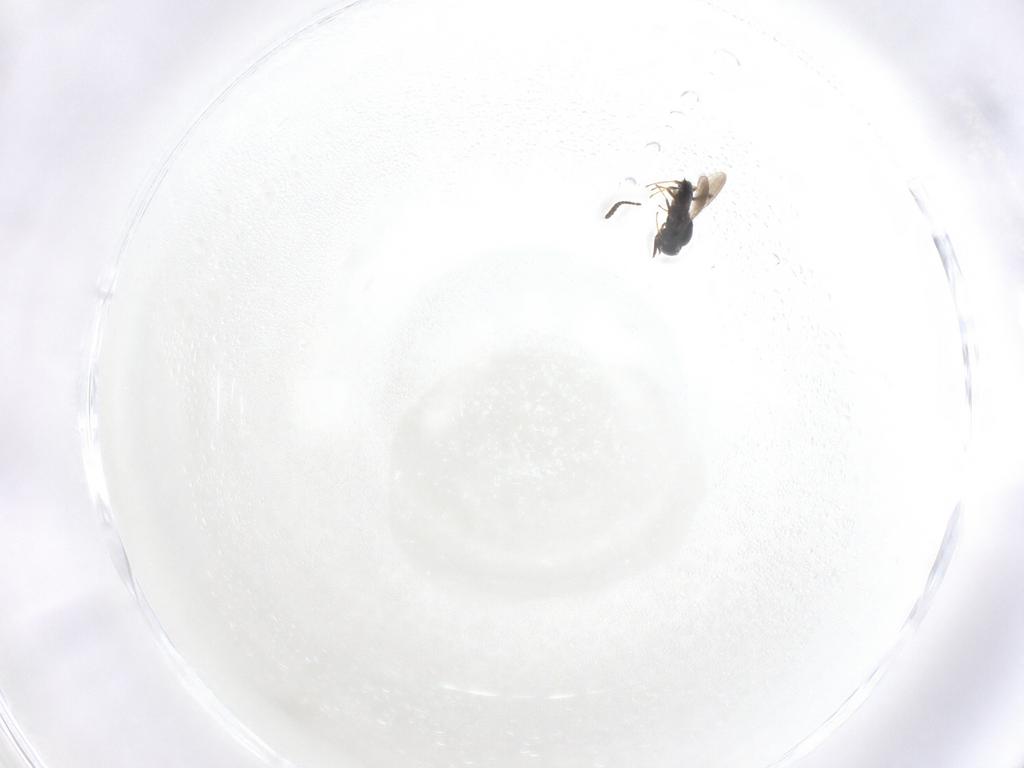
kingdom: Animalia
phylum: Arthropoda
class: Insecta
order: Hymenoptera
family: Scelionidae
